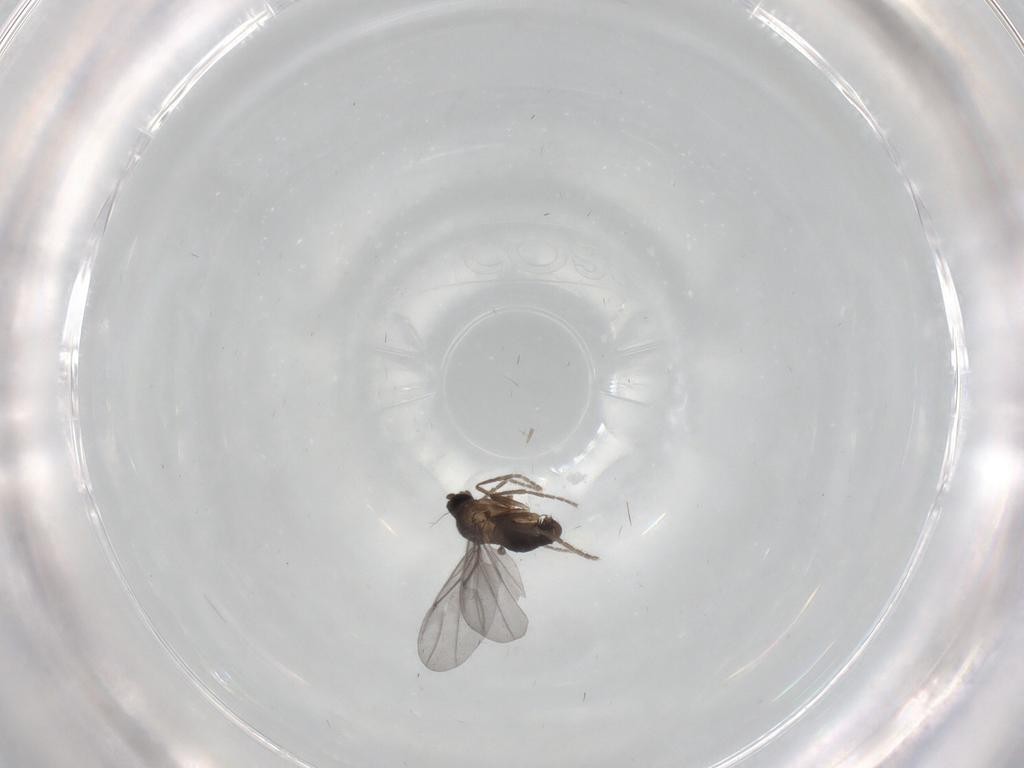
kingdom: Animalia
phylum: Arthropoda
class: Insecta
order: Diptera
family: Phoridae
